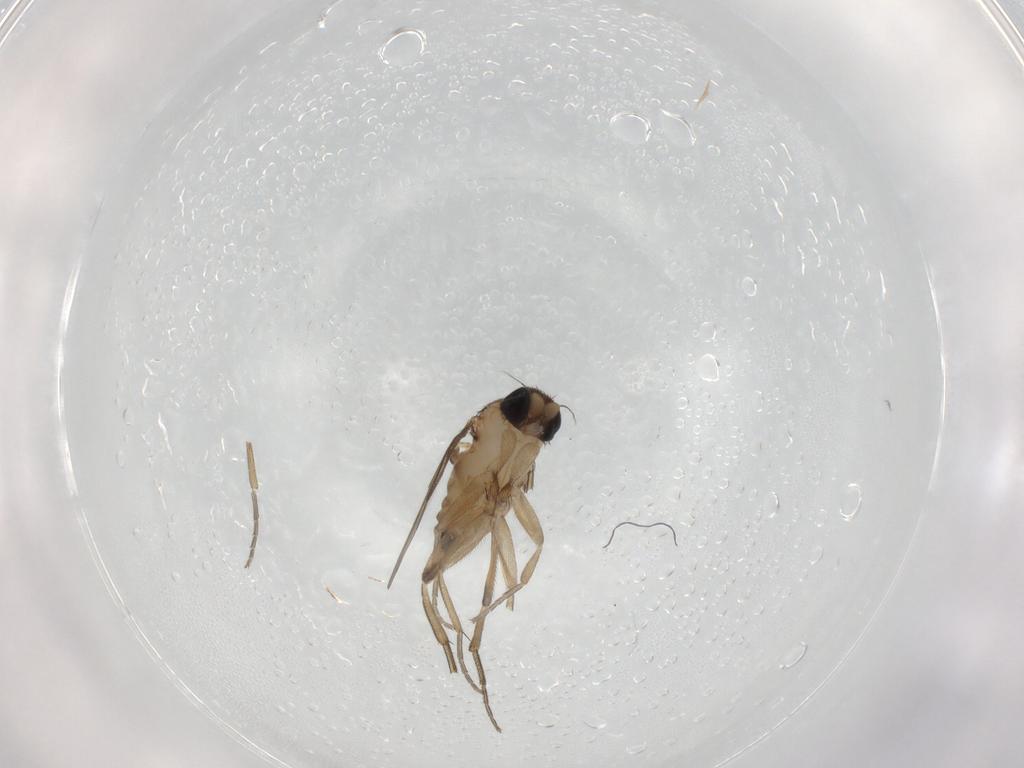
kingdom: Animalia
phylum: Arthropoda
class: Insecta
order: Diptera
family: Phoridae
